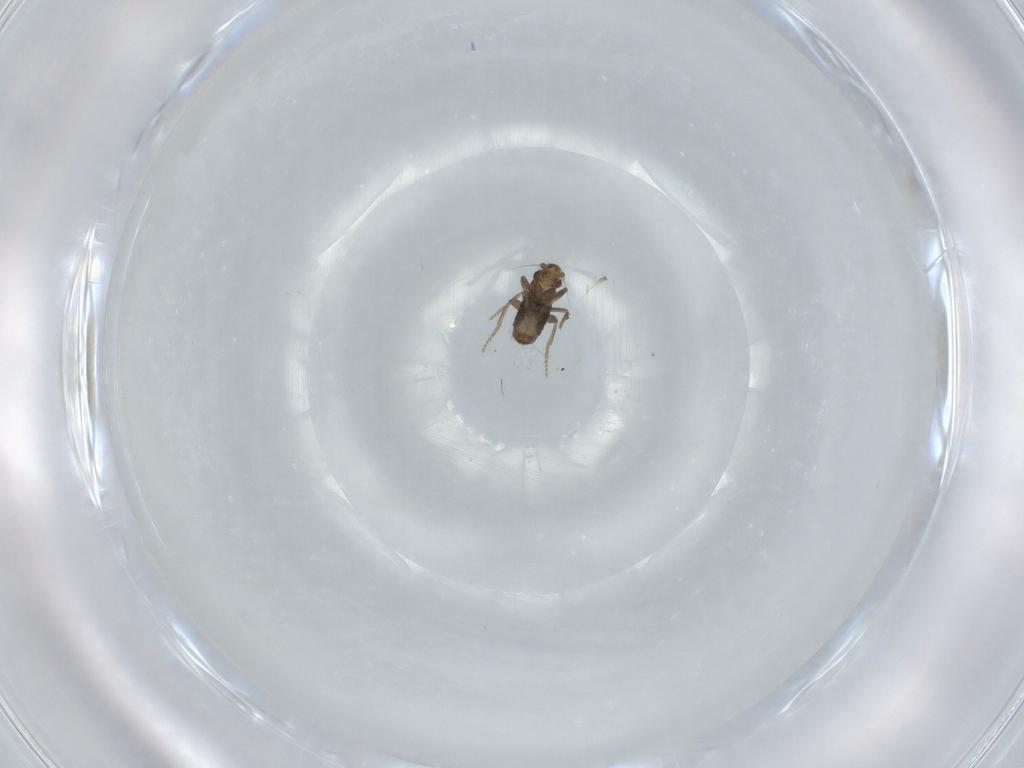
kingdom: Animalia
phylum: Arthropoda
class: Insecta
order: Diptera
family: Phoridae
